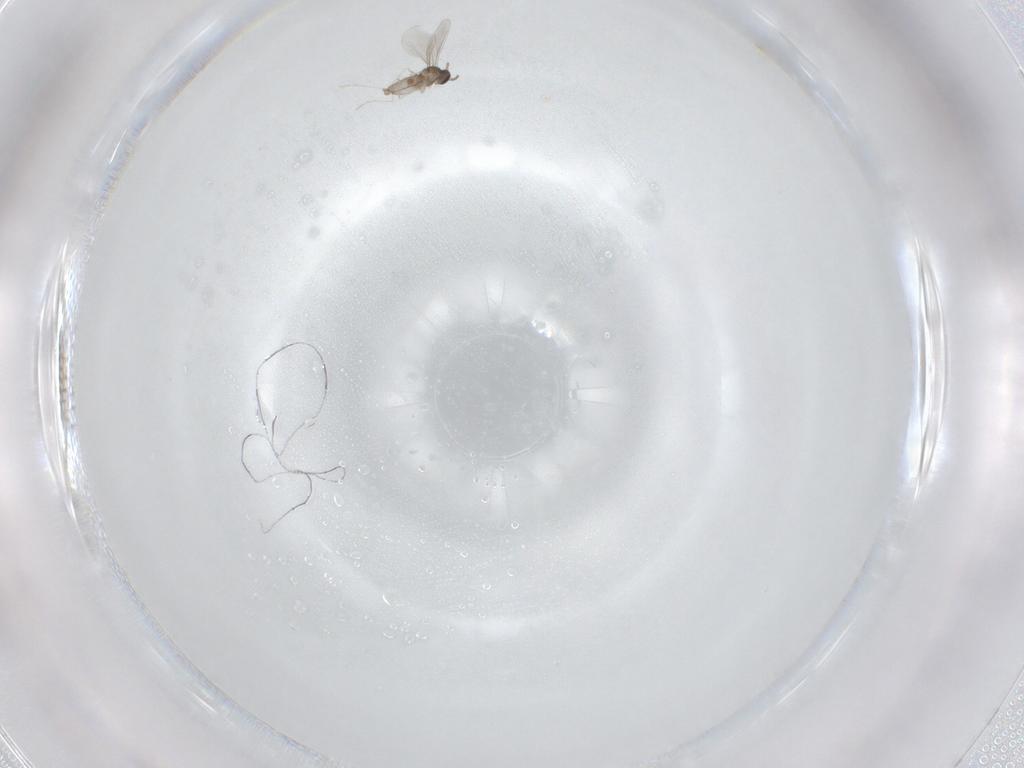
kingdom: Animalia
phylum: Arthropoda
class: Insecta
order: Diptera
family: Cecidomyiidae
